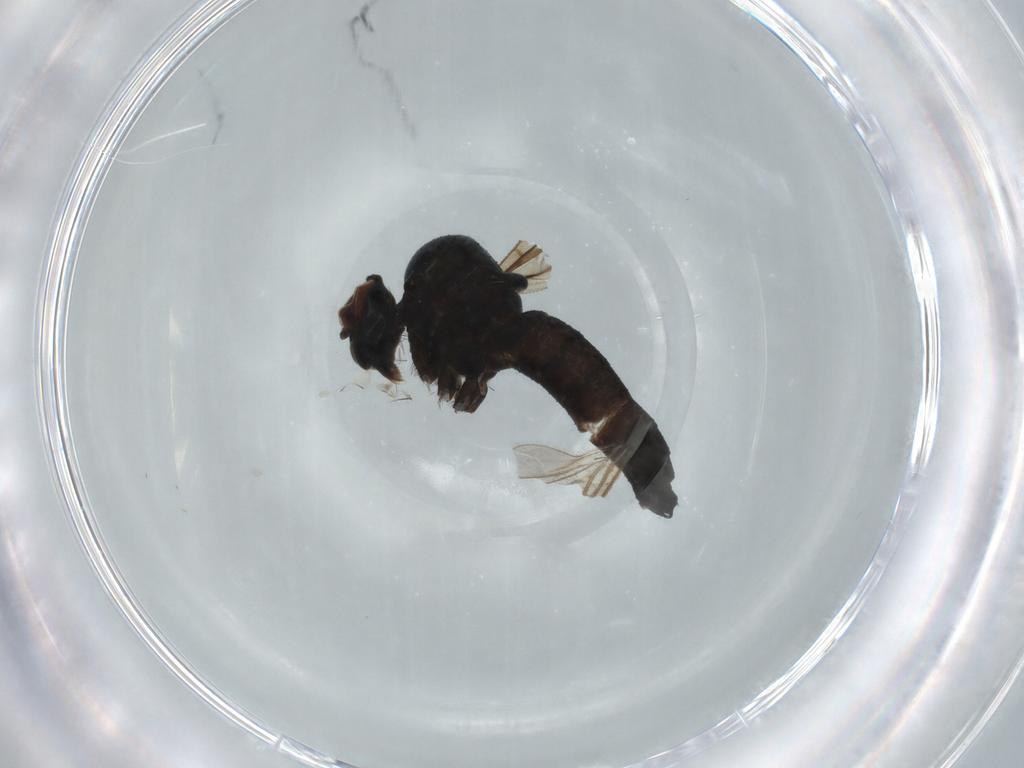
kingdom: Animalia
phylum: Arthropoda
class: Insecta
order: Diptera
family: Hybotidae
